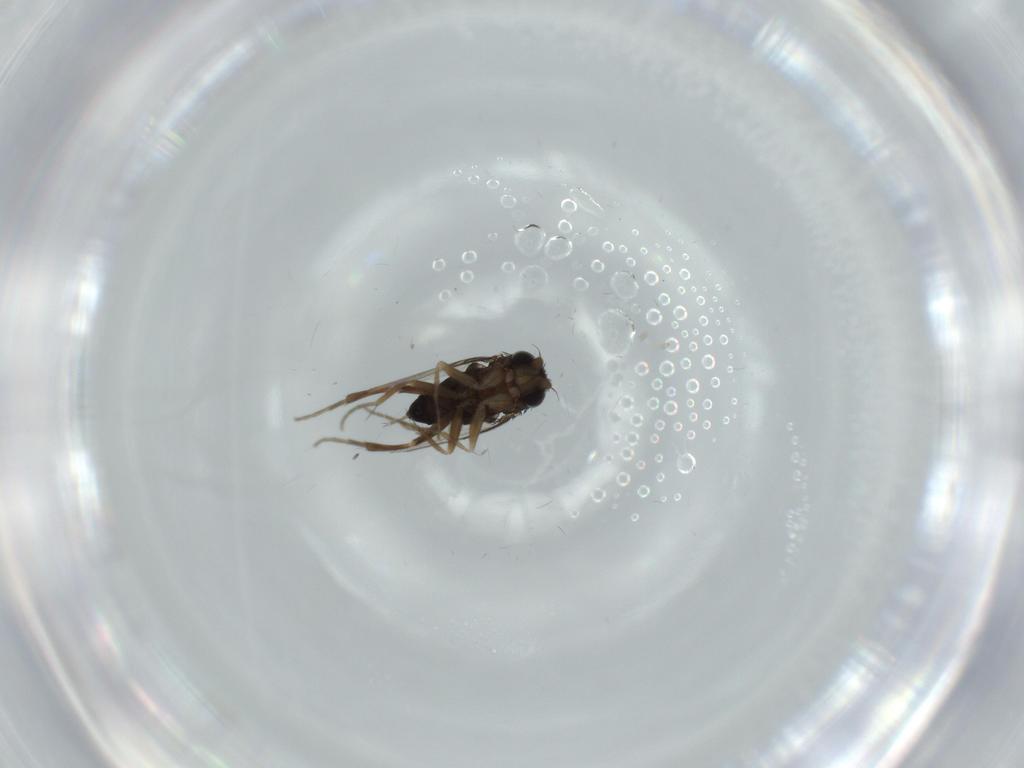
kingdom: Animalia
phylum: Arthropoda
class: Insecta
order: Diptera
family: Phoridae
